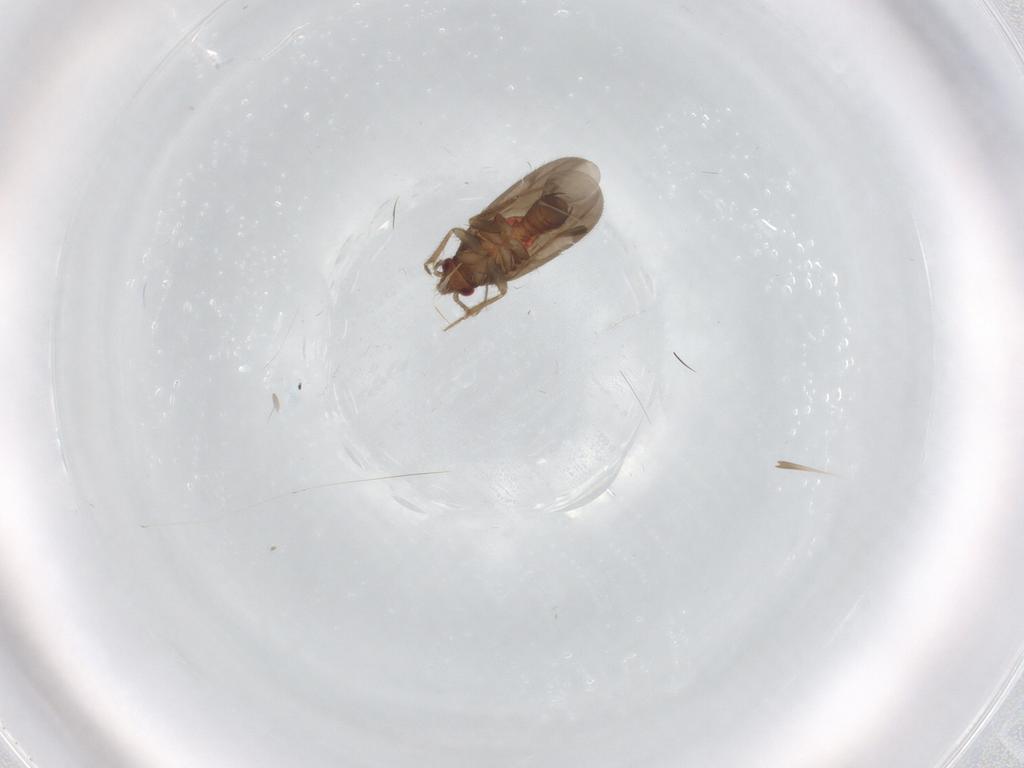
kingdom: Animalia
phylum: Arthropoda
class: Insecta
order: Hemiptera
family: Ceratocombidae
